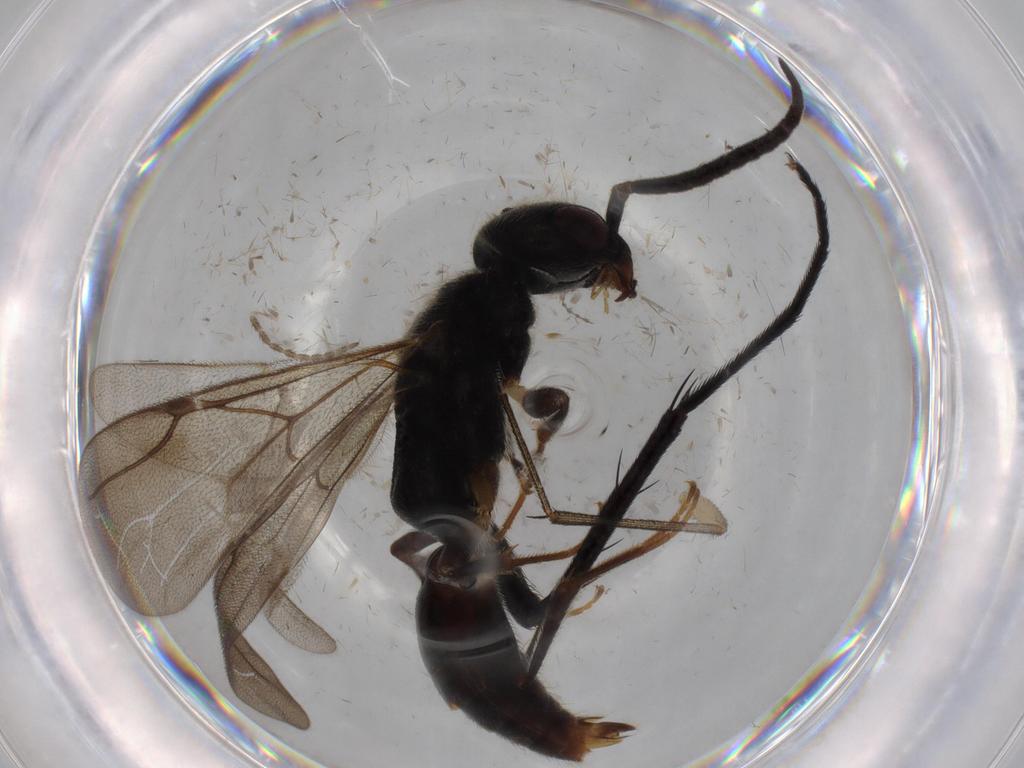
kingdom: Animalia
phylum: Arthropoda
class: Insecta
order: Hymenoptera
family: Bethylidae
